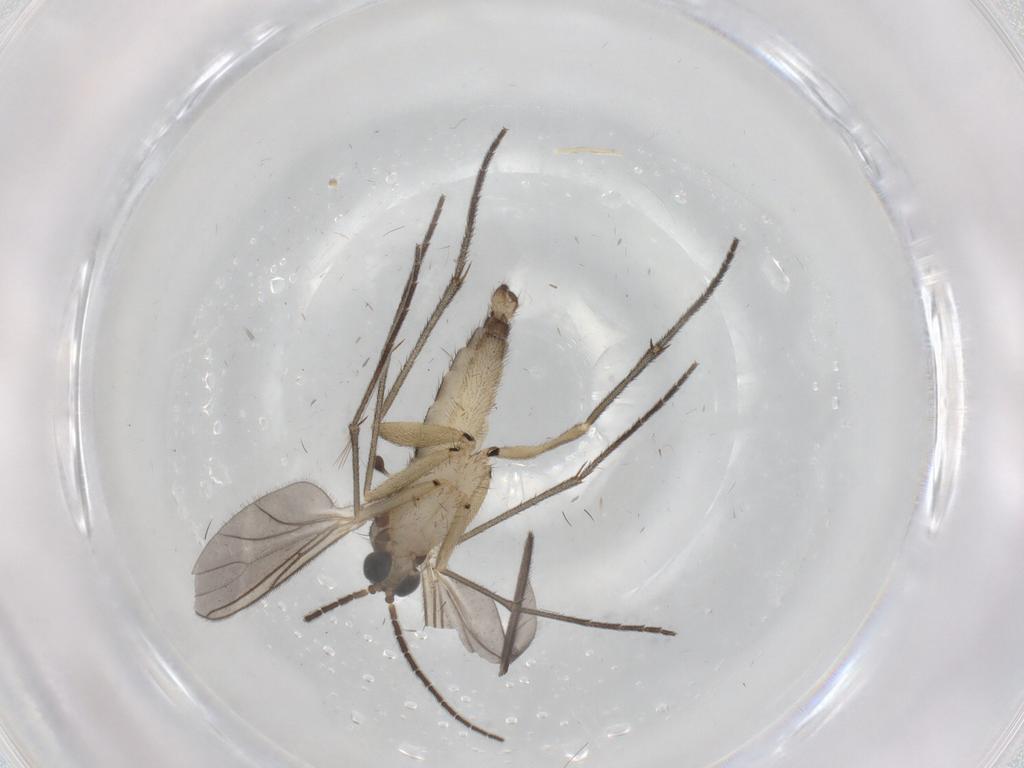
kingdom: Animalia
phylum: Arthropoda
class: Insecta
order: Diptera
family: Sciaridae
